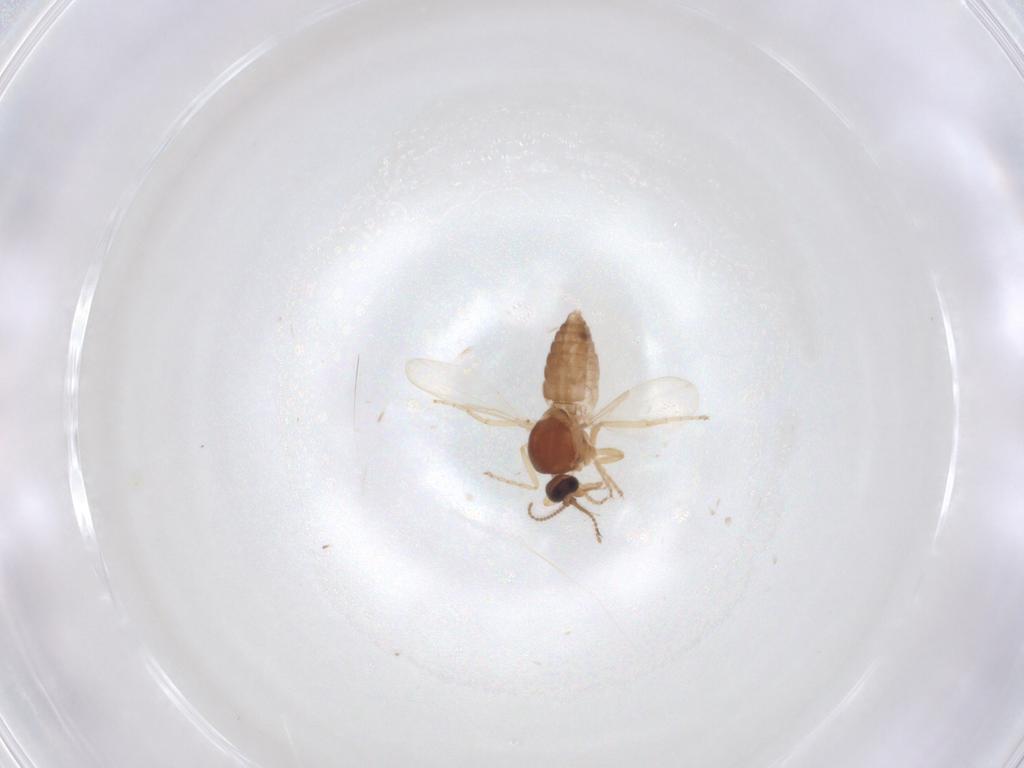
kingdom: Animalia
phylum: Arthropoda
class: Insecta
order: Diptera
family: Ceratopogonidae
